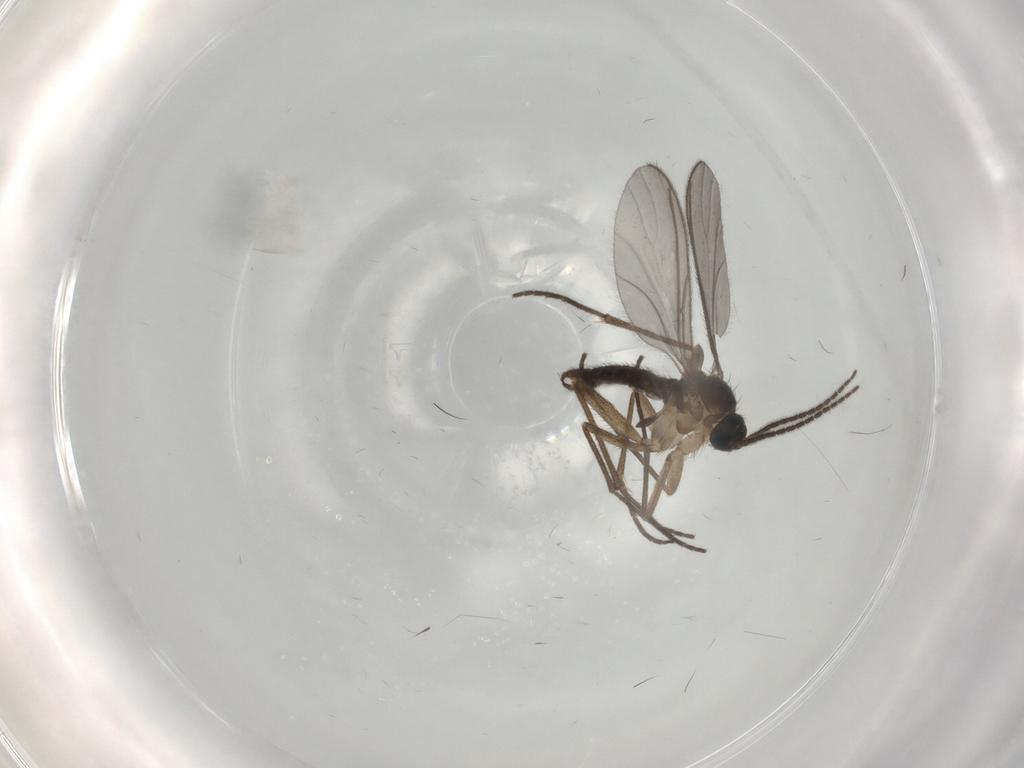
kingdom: Animalia
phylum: Arthropoda
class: Insecta
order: Diptera
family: Sciaridae
